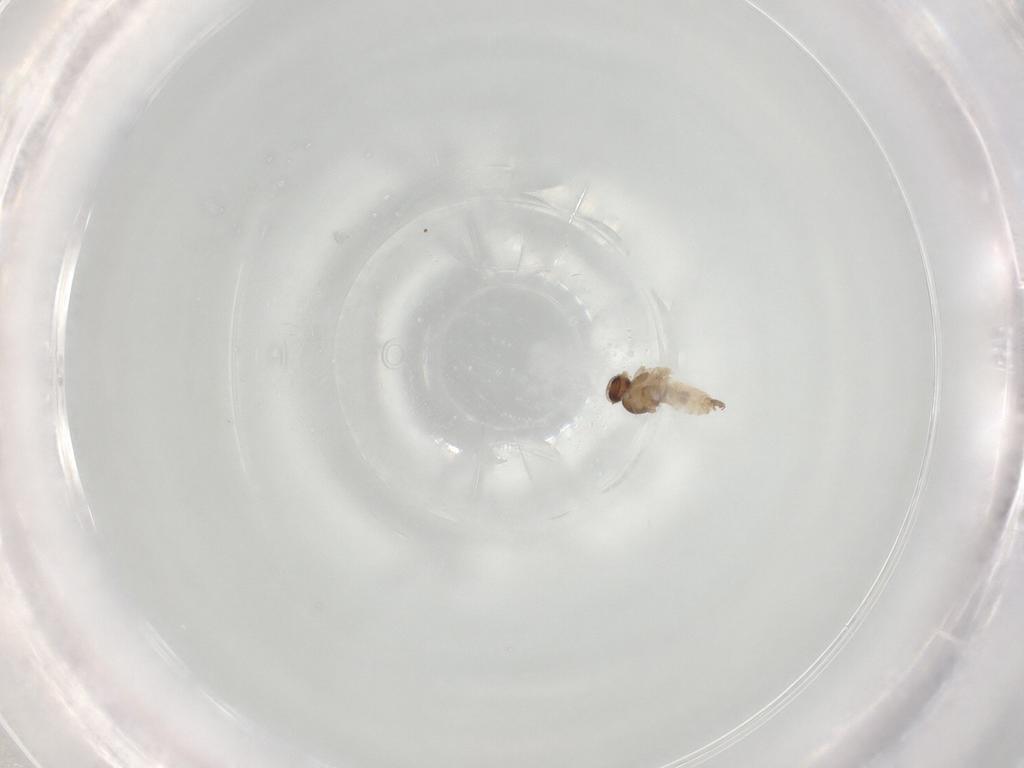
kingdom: Animalia
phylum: Arthropoda
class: Insecta
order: Diptera
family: Cecidomyiidae
